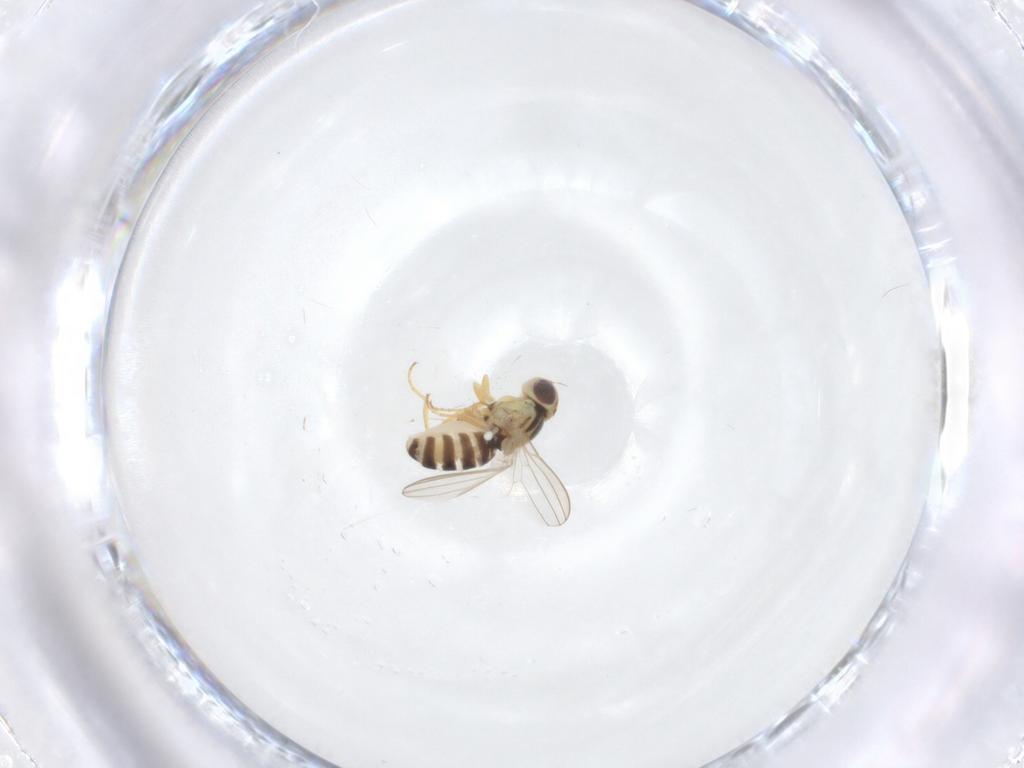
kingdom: Animalia
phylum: Arthropoda
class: Insecta
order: Diptera
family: Chyromyidae
